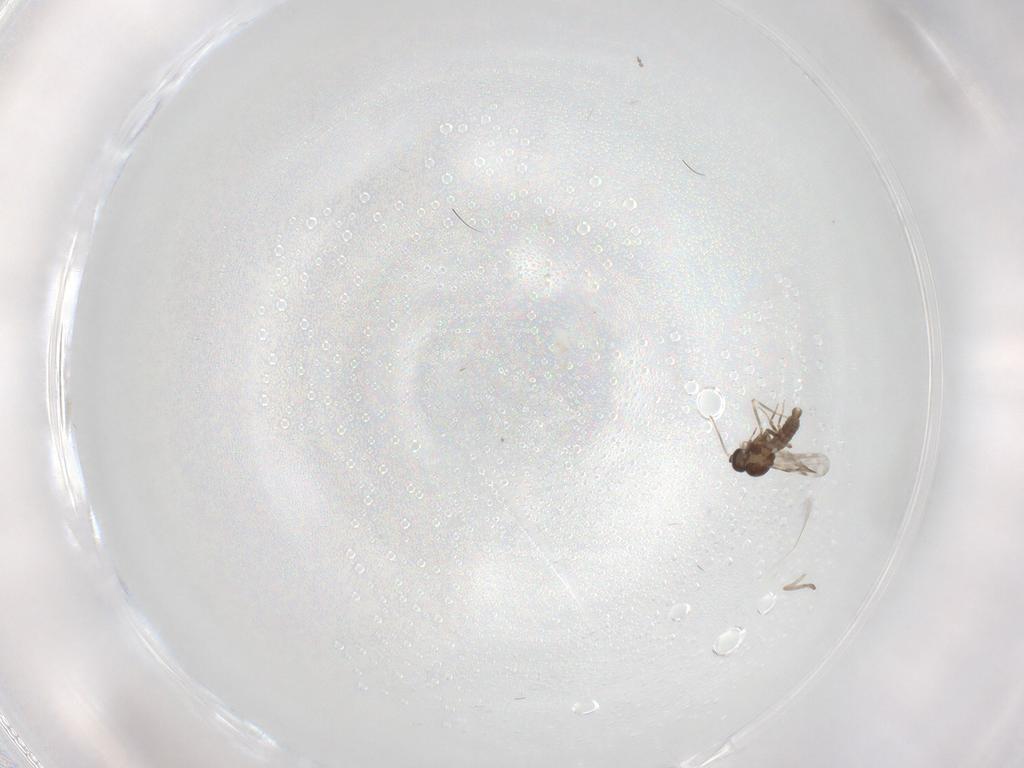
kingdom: Animalia
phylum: Arthropoda
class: Insecta
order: Diptera
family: Psychodidae
